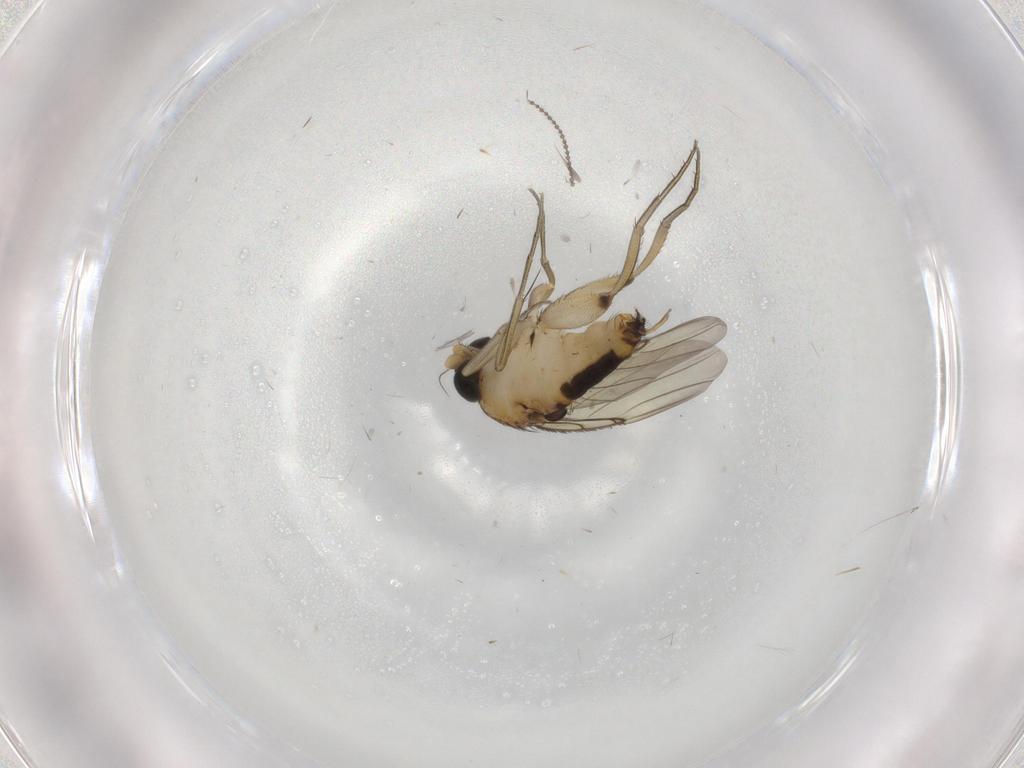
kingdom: Animalia
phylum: Arthropoda
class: Insecta
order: Diptera
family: Phoridae
